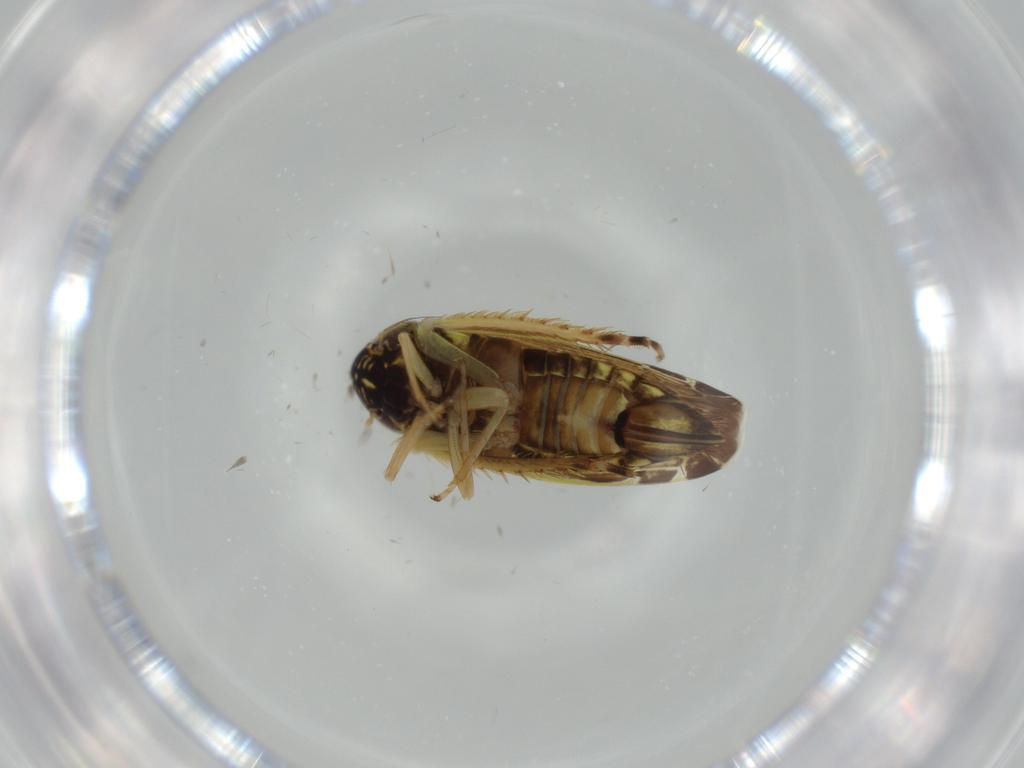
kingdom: Animalia
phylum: Arthropoda
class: Insecta
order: Hemiptera
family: Cicadellidae
